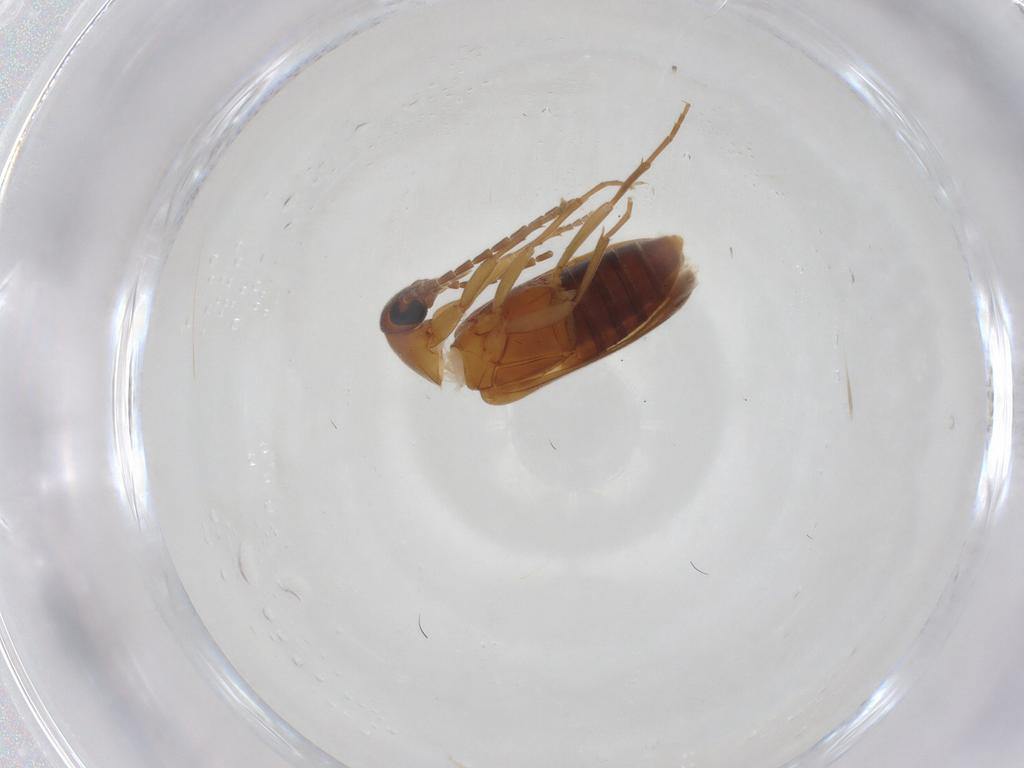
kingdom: Animalia
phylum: Arthropoda
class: Insecta
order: Coleoptera
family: Scraptiidae
